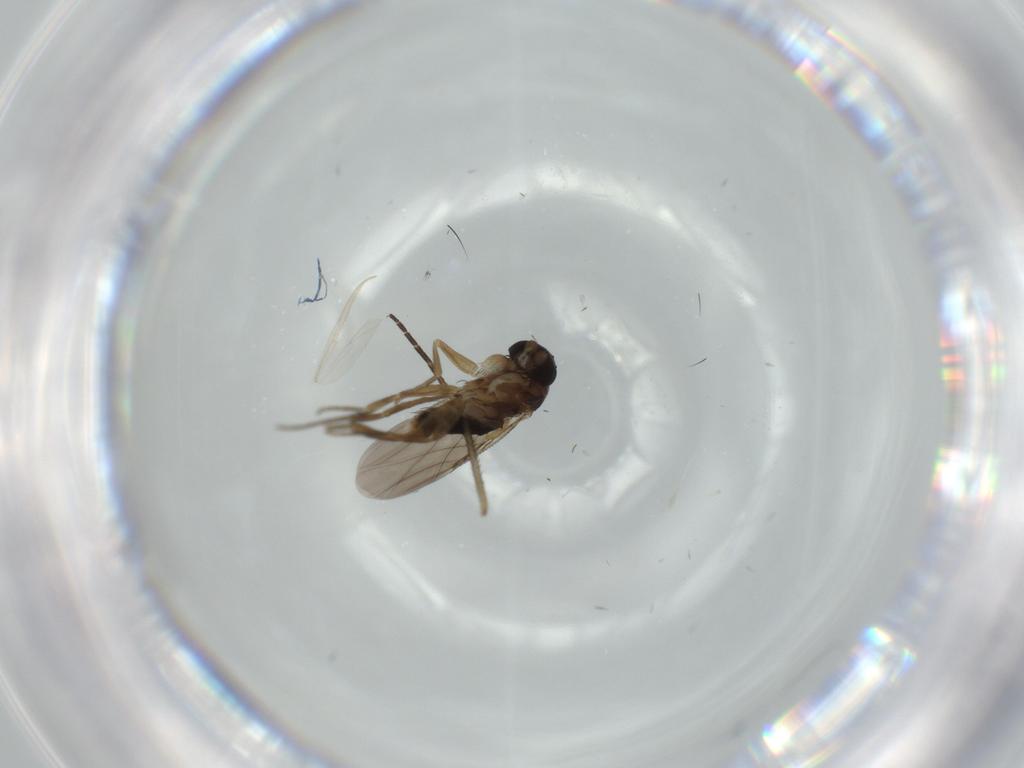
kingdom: Animalia
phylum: Arthropoda
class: Insecta
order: Diptera
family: Phoridae
